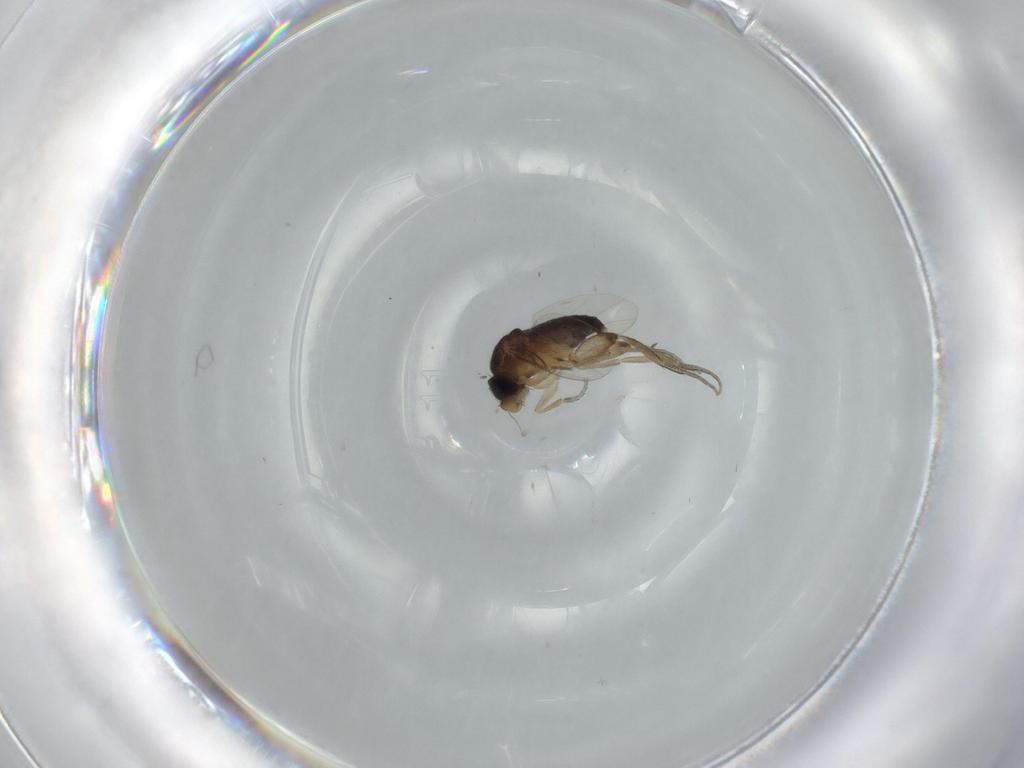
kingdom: Animalia
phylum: Arthropoda
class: Insecta
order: Diptera
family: Phoridae
